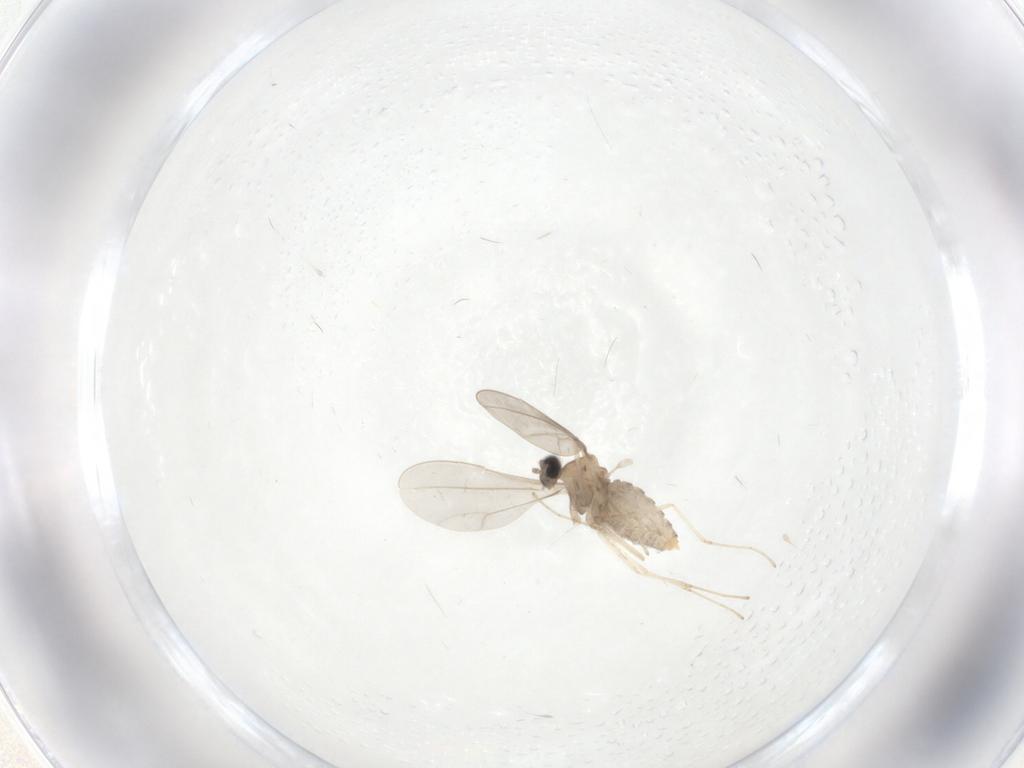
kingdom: Animalia
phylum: Arthropoda
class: Insecta
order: Diptera
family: Cecidomyiidae
